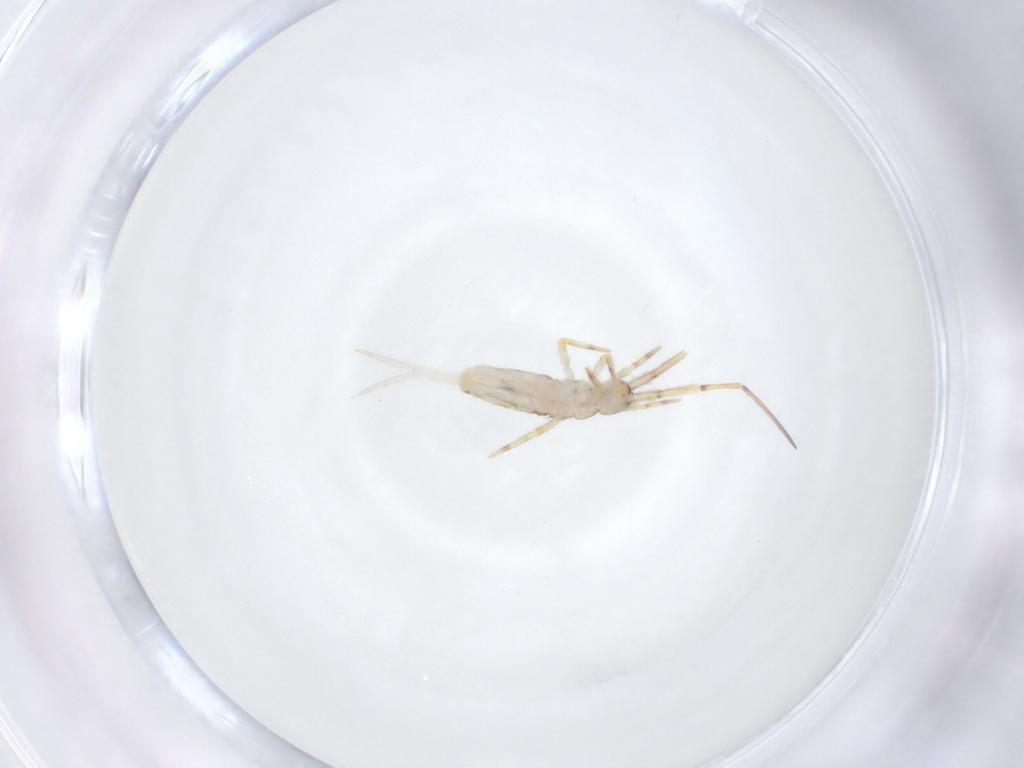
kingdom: Animalia
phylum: Arthropoda
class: Collembola
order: Entomobryomorpha
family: Entomobryidae
